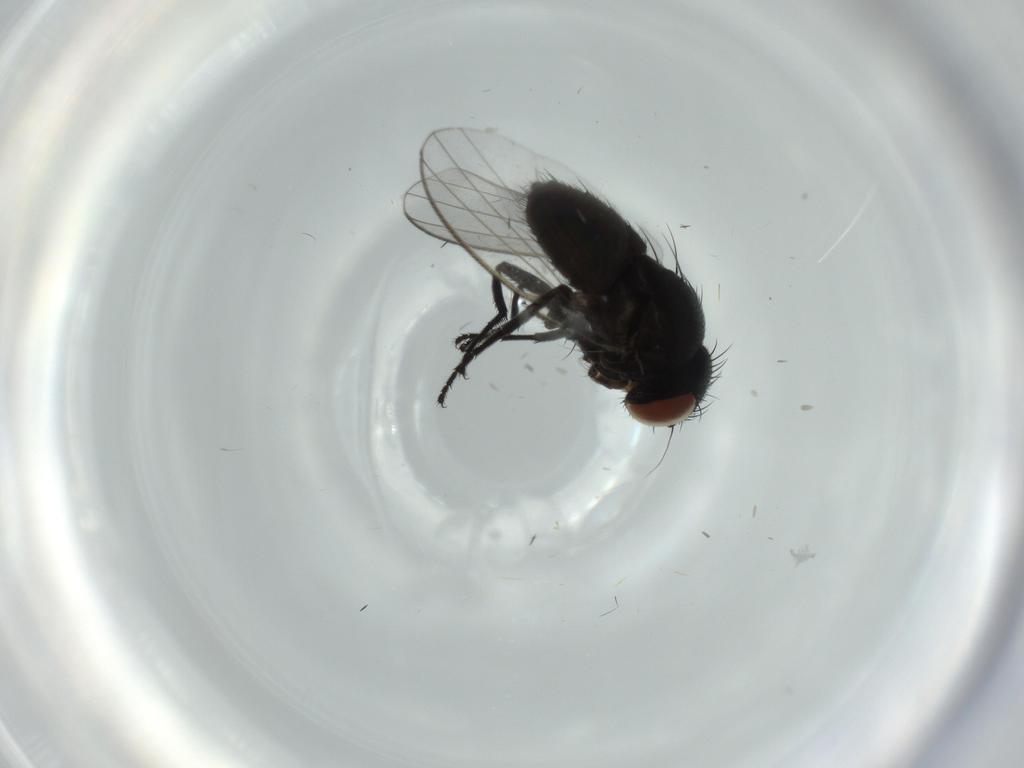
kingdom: Animalia
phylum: Arthropoda
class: Insecta
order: Diptera
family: Milichiidae
